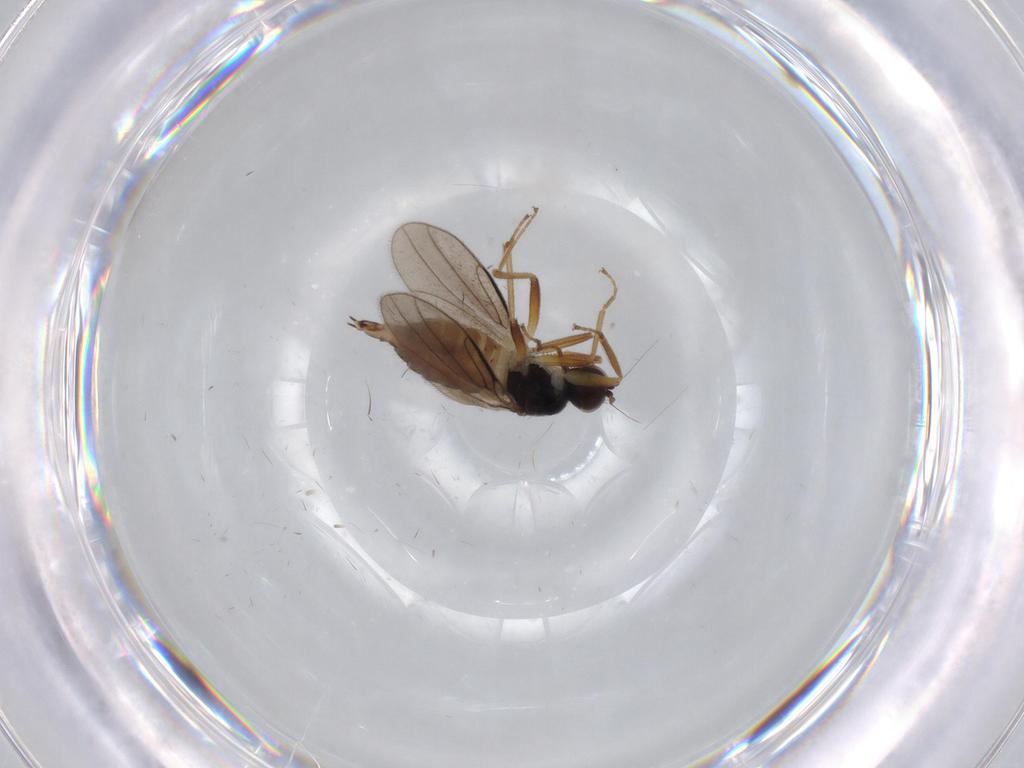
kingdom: Animalia
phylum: Arthropoda
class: Insecta
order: Diptera
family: Hybotidae
